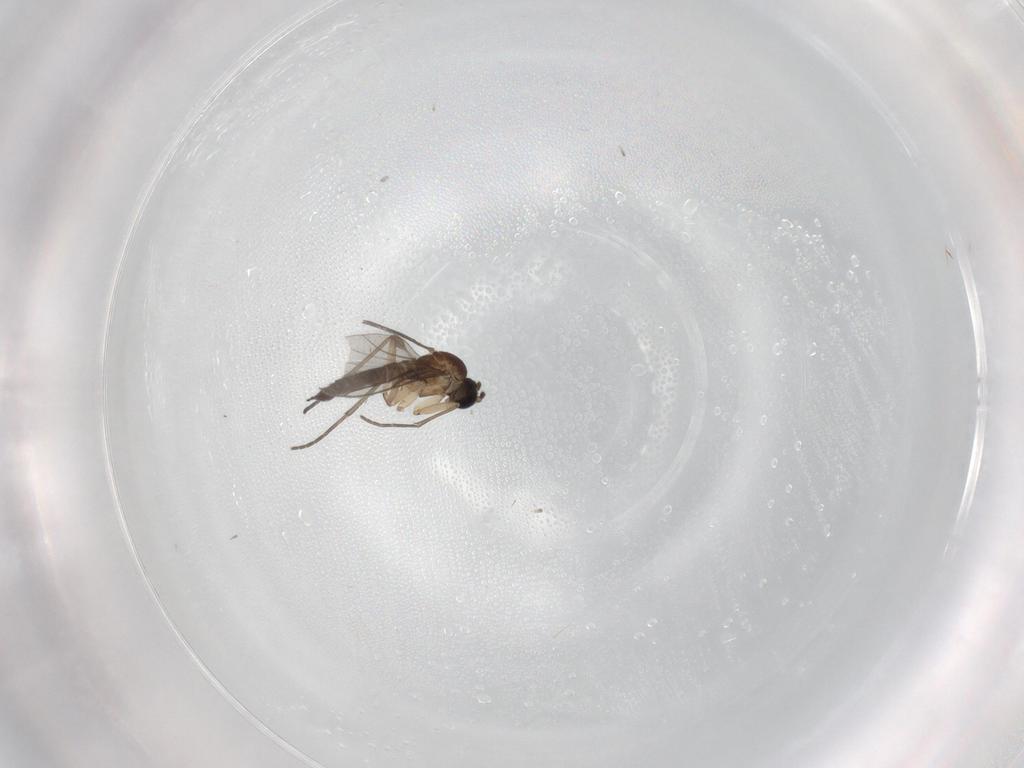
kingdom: Animalia
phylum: Arthropoda
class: Insecta
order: Diptera
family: Sciaridae
